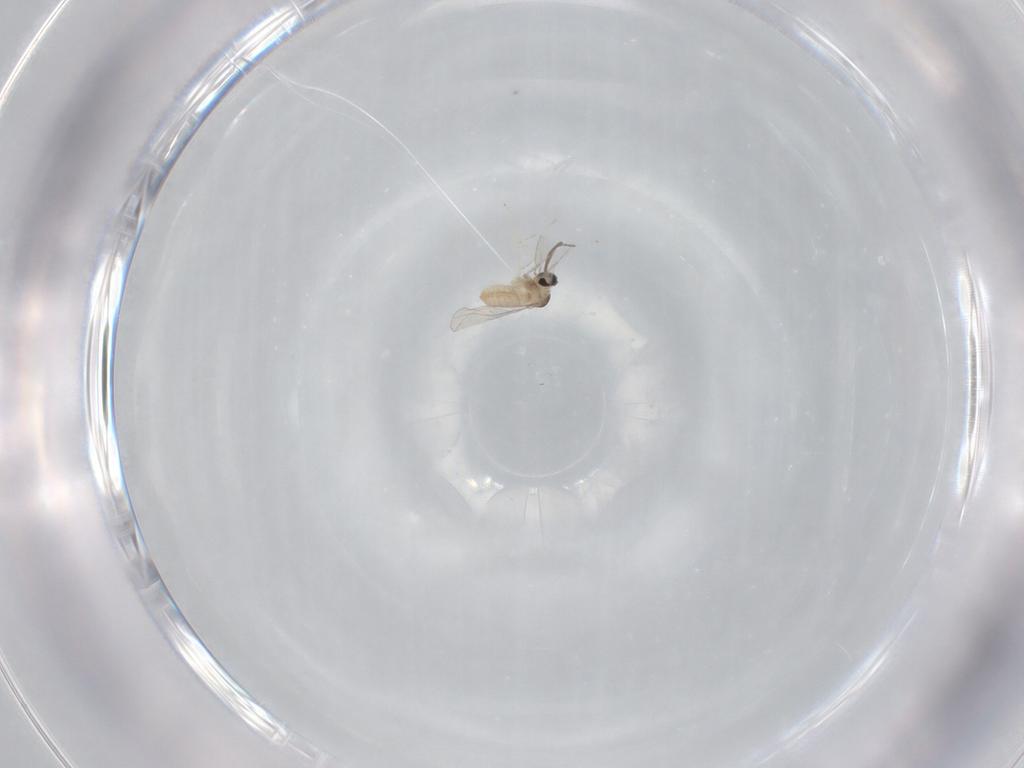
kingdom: Animalia
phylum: Arthropoda
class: Insecta
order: Diptera
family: Cecidomyiidae
